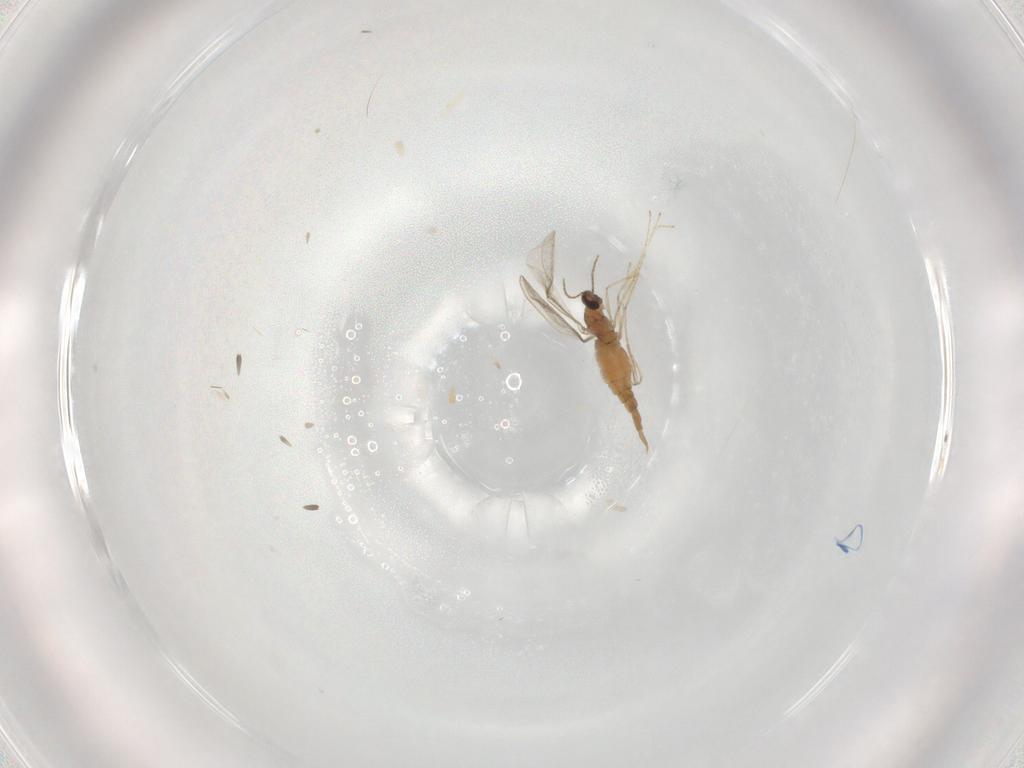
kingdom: Animalia
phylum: Arthropoda
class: Insecta
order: Diptera
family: Cecidomyiidae
